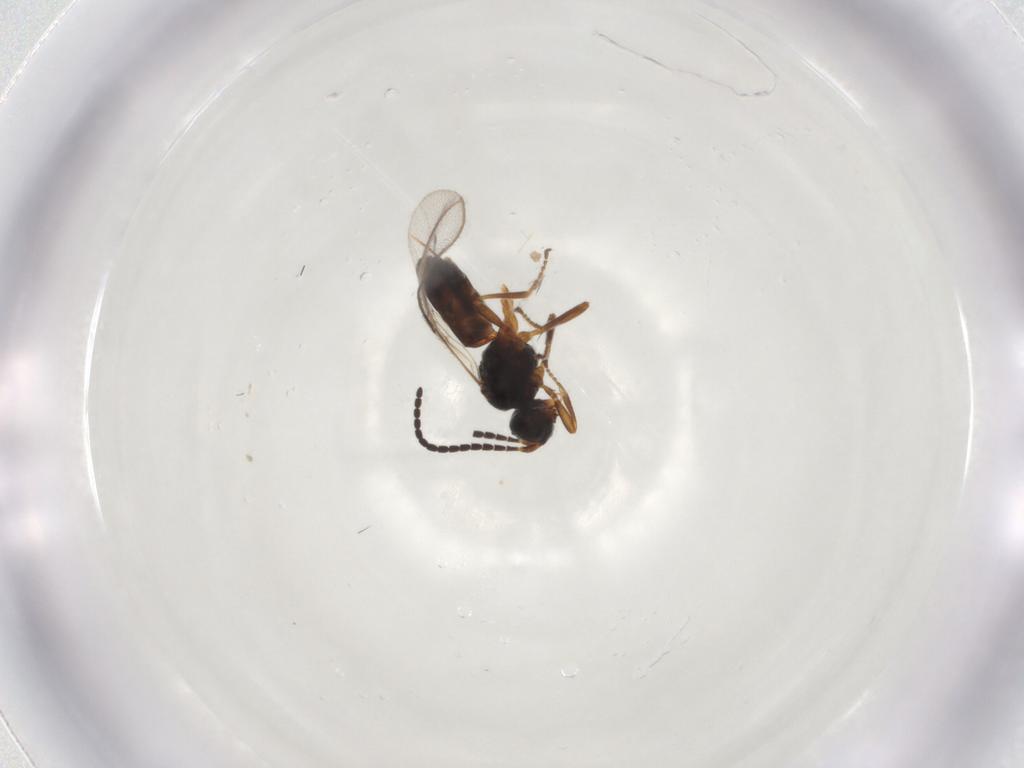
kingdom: Animalia
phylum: Arthropoda
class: Insecta
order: Hymenoptera
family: Braconidae
